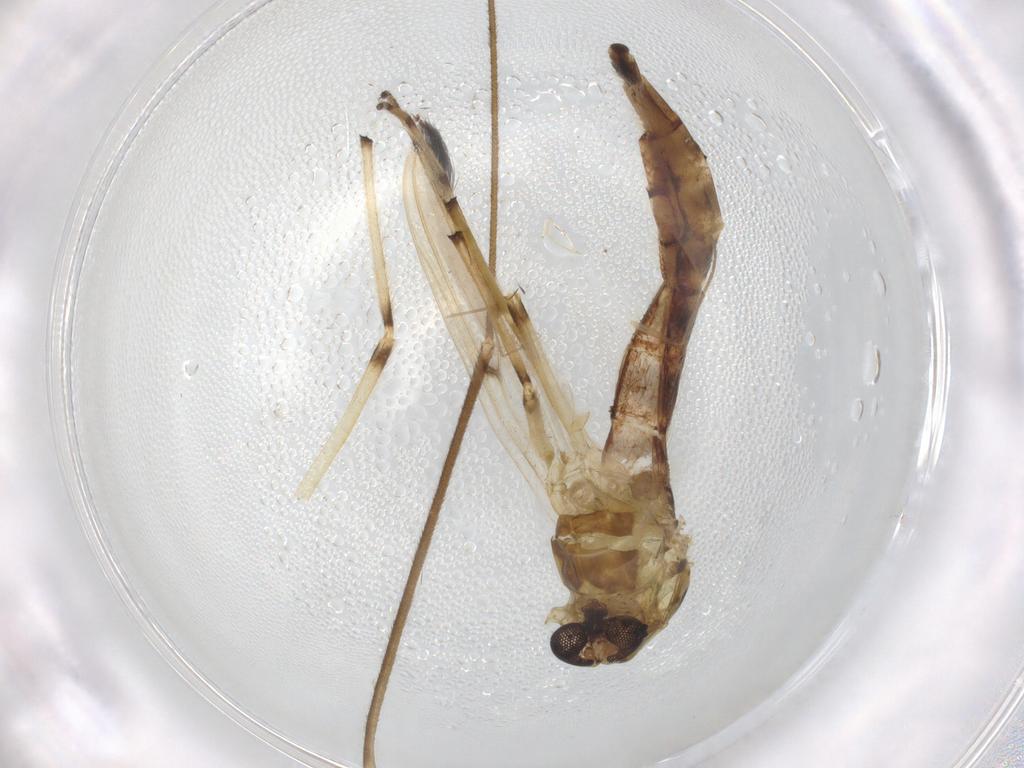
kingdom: Animalia
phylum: Arthropoda
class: Insecta
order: Diptera
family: Ceratopogonidae
